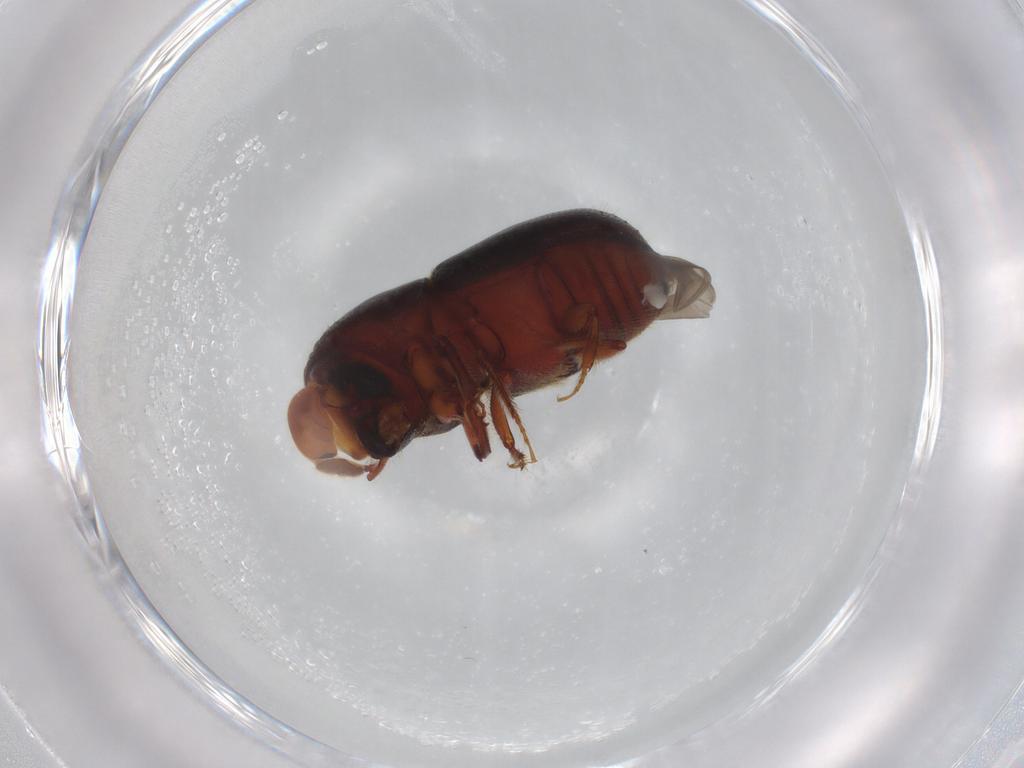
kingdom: Animalia
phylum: Arthropoda
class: Insecta
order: Coleoptera
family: Curculionidae
